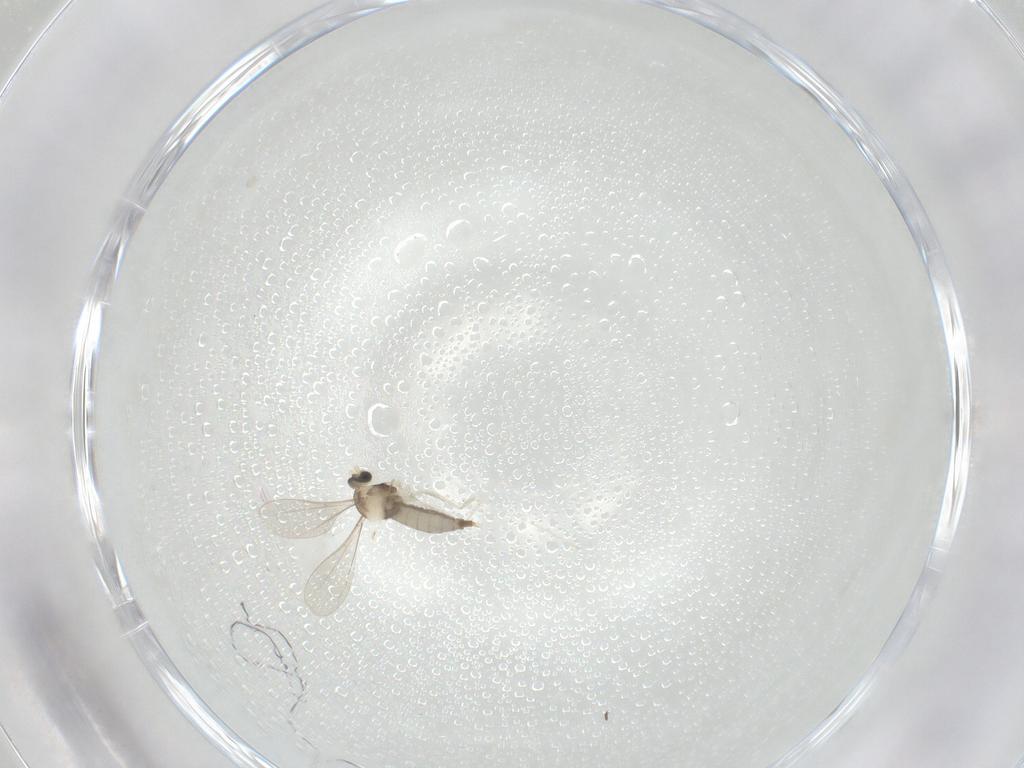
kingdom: Animalia
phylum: Arthropoda
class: Insecta
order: Diptera
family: Cecidomyiidae
